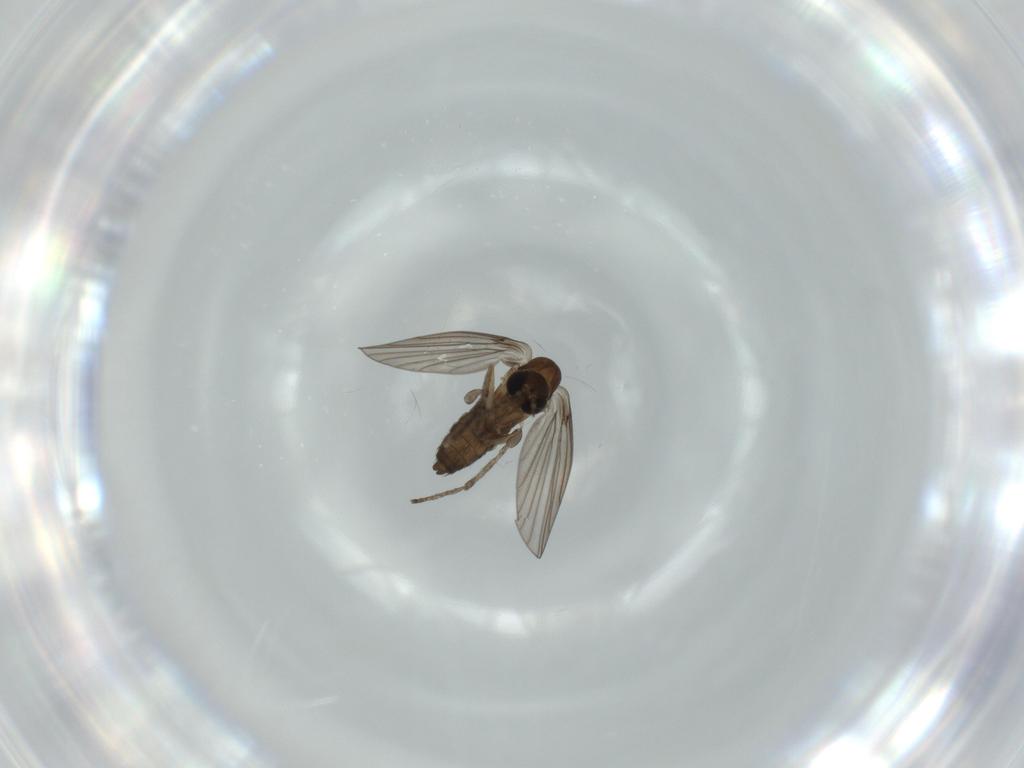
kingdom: Animalia
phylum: Arthropoda
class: Insecta
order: Diptera
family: Psychodidae
